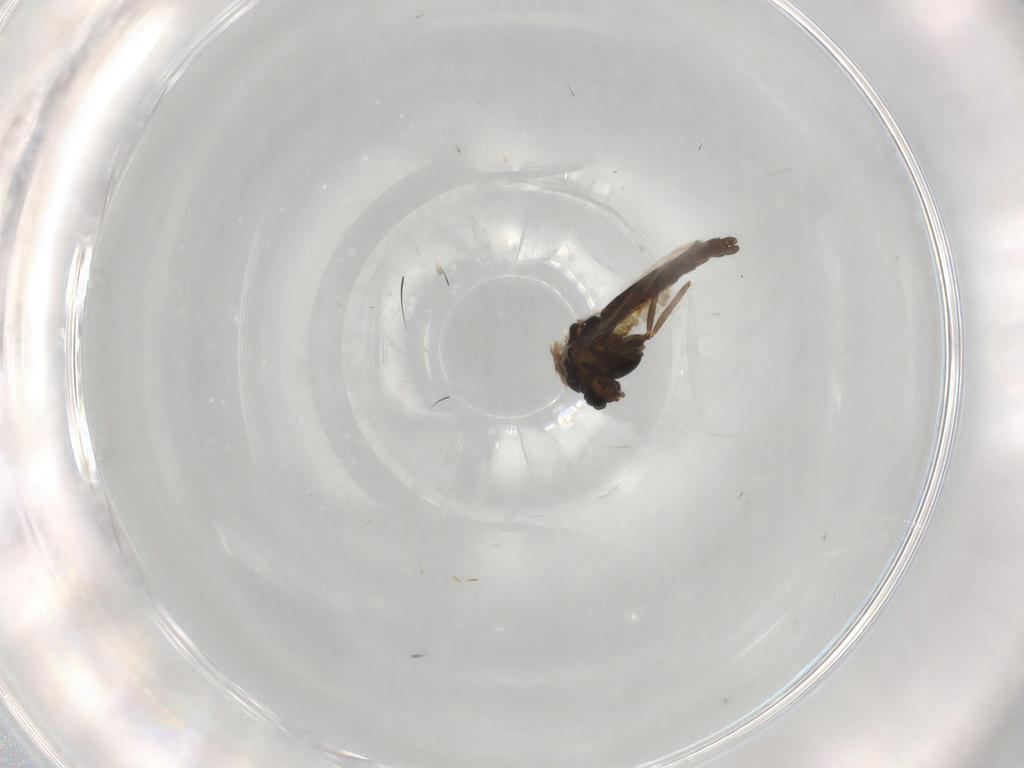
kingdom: Animalia
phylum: Arthropoda
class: Insecta
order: Diptera
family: Chironomidae
